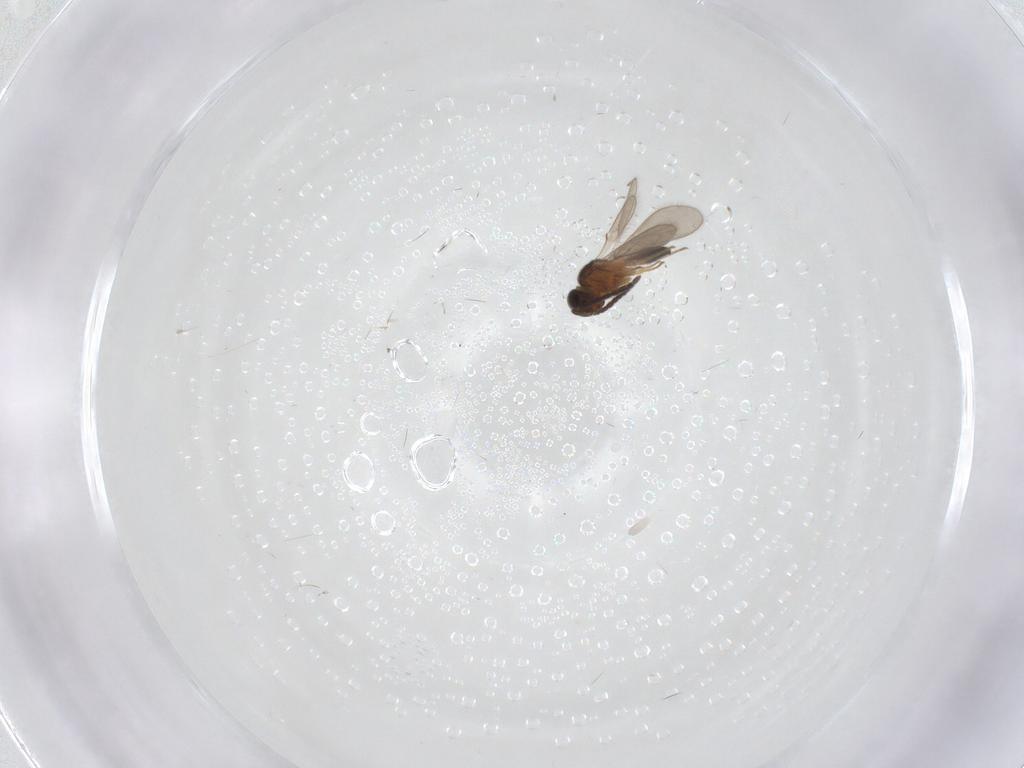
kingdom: Animalia
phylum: Arthropoda
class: Insecta
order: Hymenoptera
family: Scelionidae
